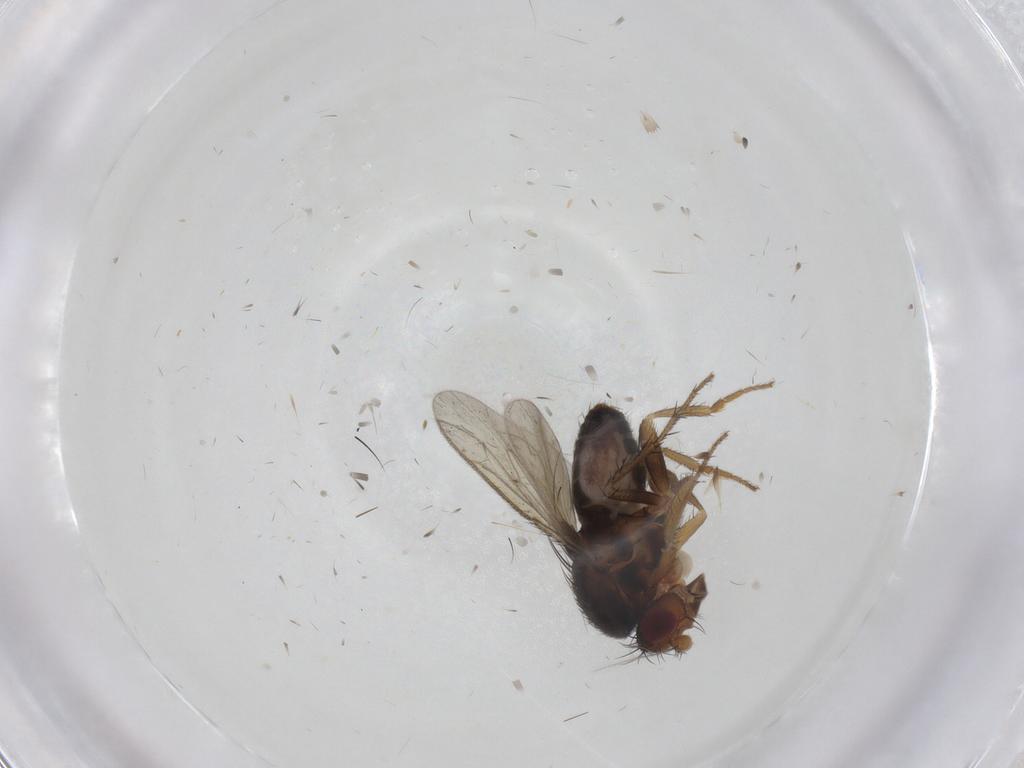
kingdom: Animalia
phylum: Arthropoda
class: Insecta
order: Diptera
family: Sphaeroceridae
